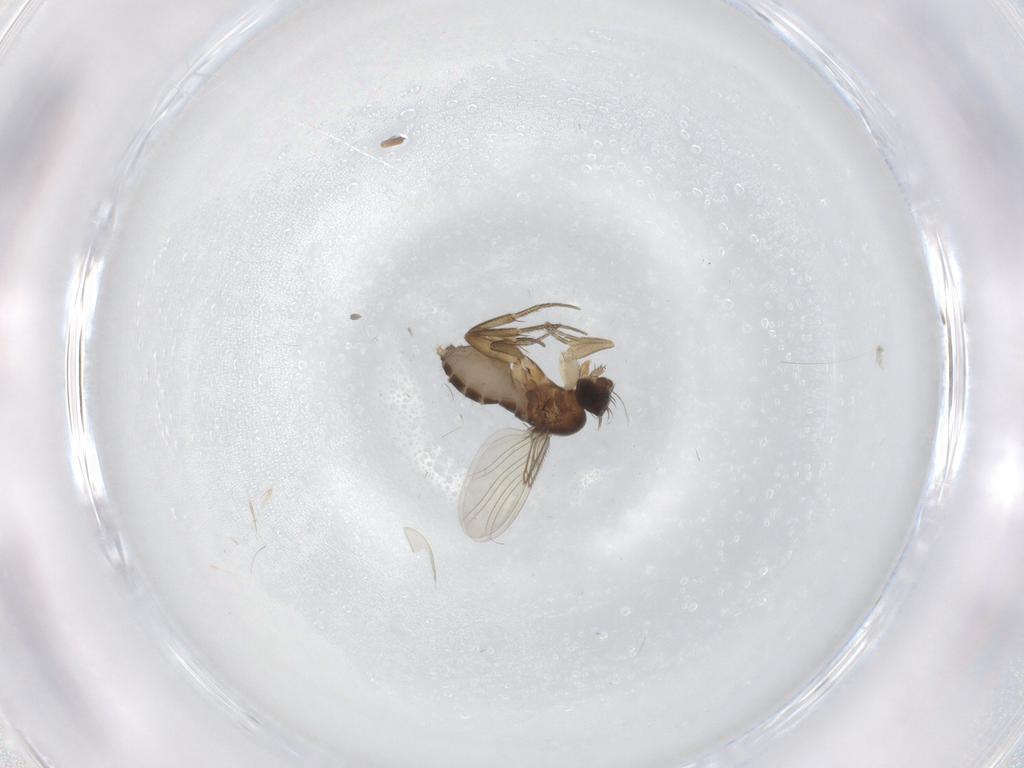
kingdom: Animalia
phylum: Arthropoda
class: Insecta
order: Diptera
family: Phoridae
